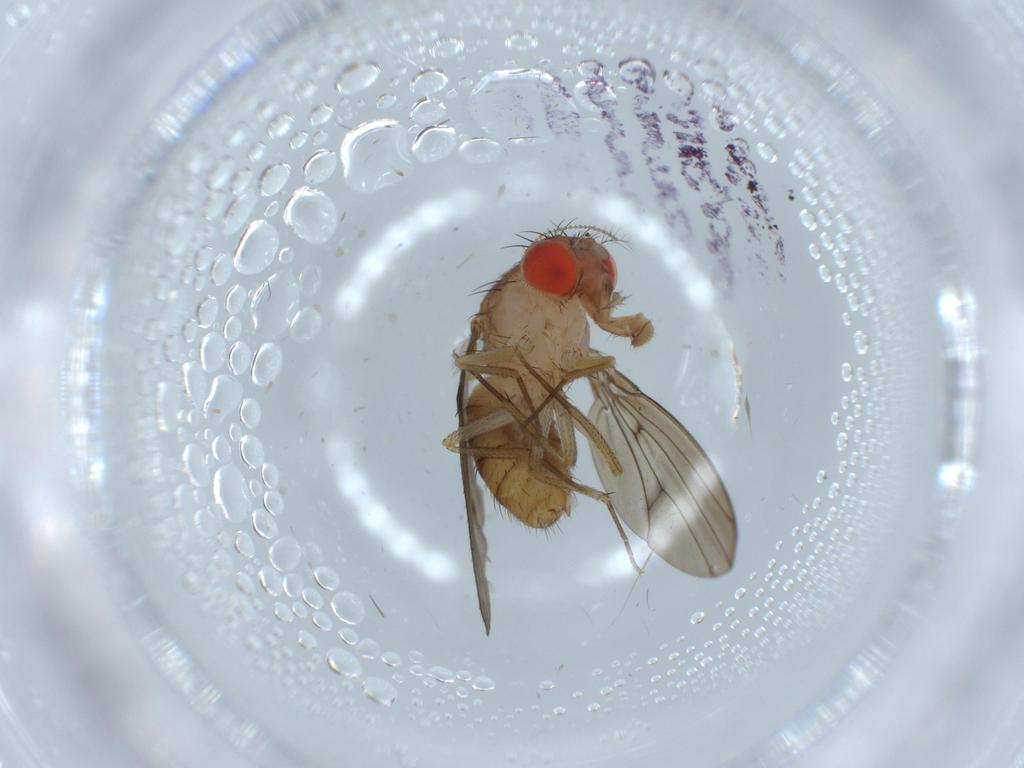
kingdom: Animalia
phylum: Arthropoda
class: Insecta
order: Diptera
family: Drosophilidae
